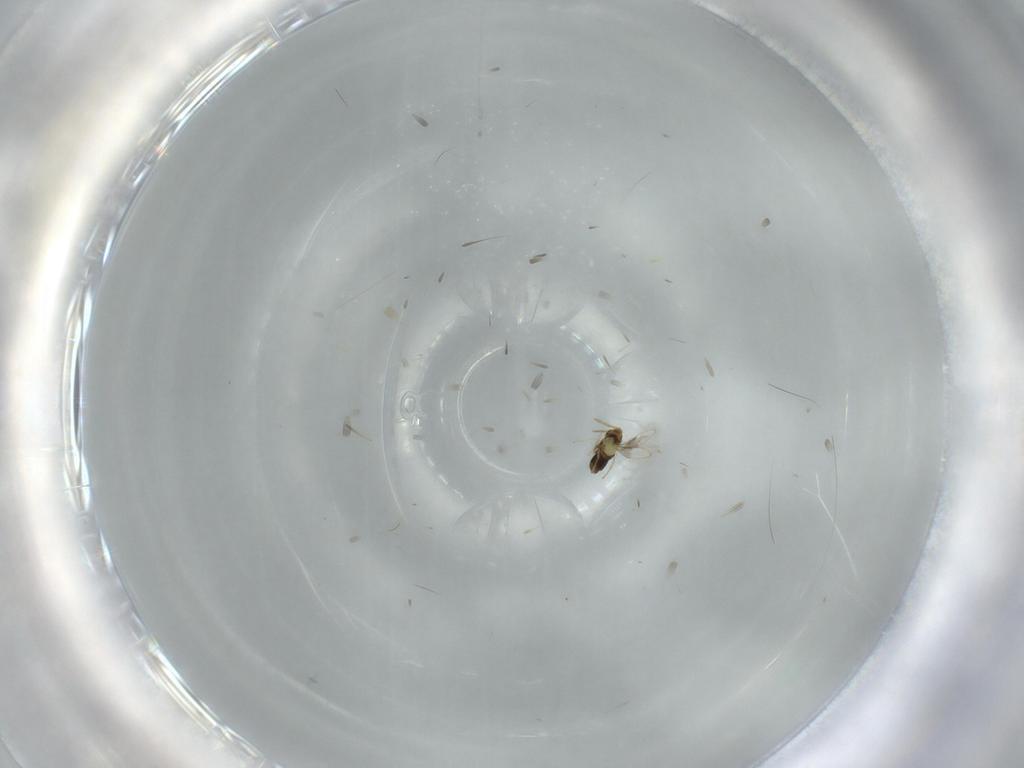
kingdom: Animalia
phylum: Arthropoda
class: Insecta
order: Hymenoptera
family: Aphelinidae
